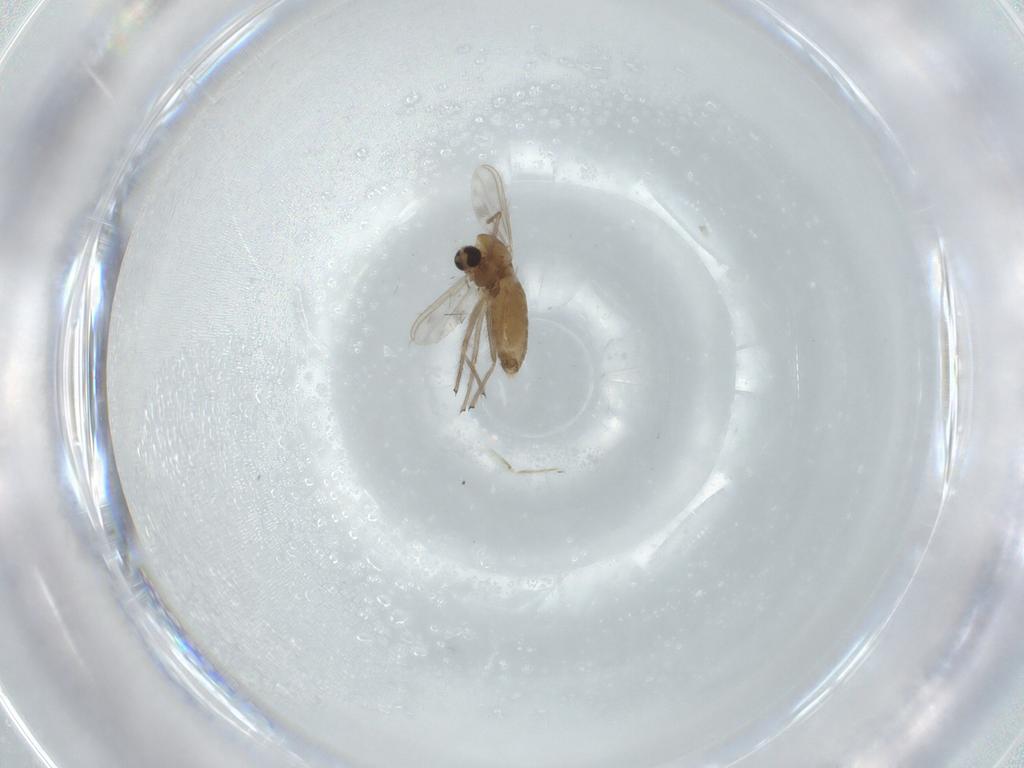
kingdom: Animalia
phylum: Arthropoda
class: Insecta
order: Diptera
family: Chironomidae
